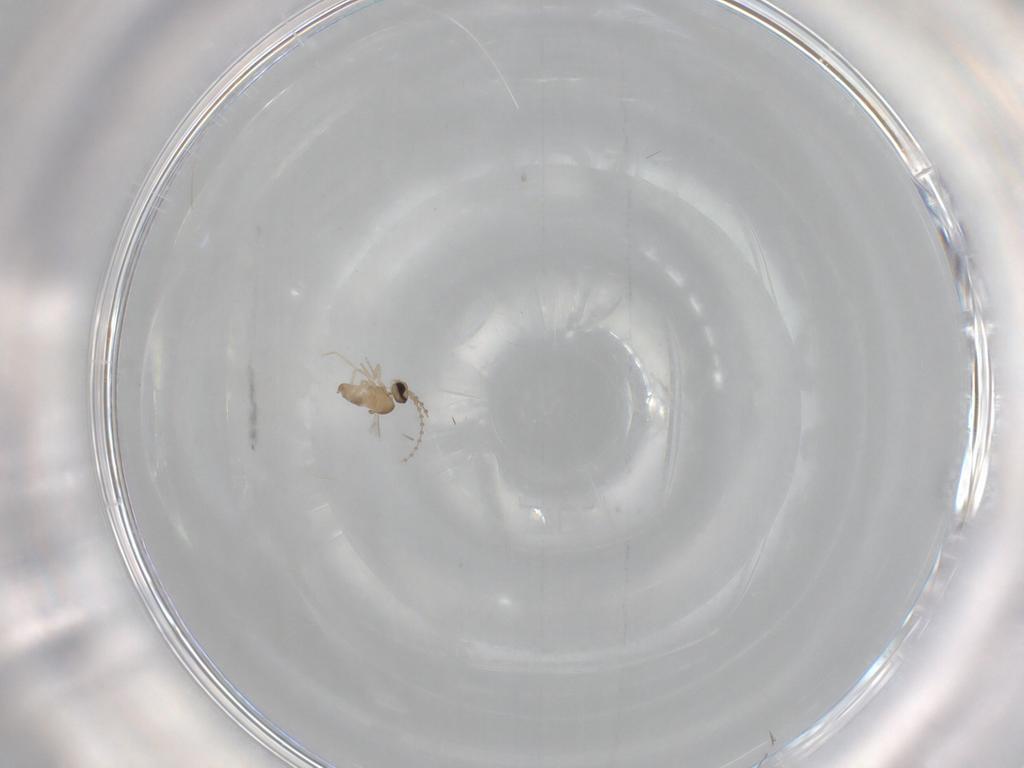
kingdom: Animalia
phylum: Arthropoda
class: Insecta
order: Diptera
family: Cecidomyiidae
